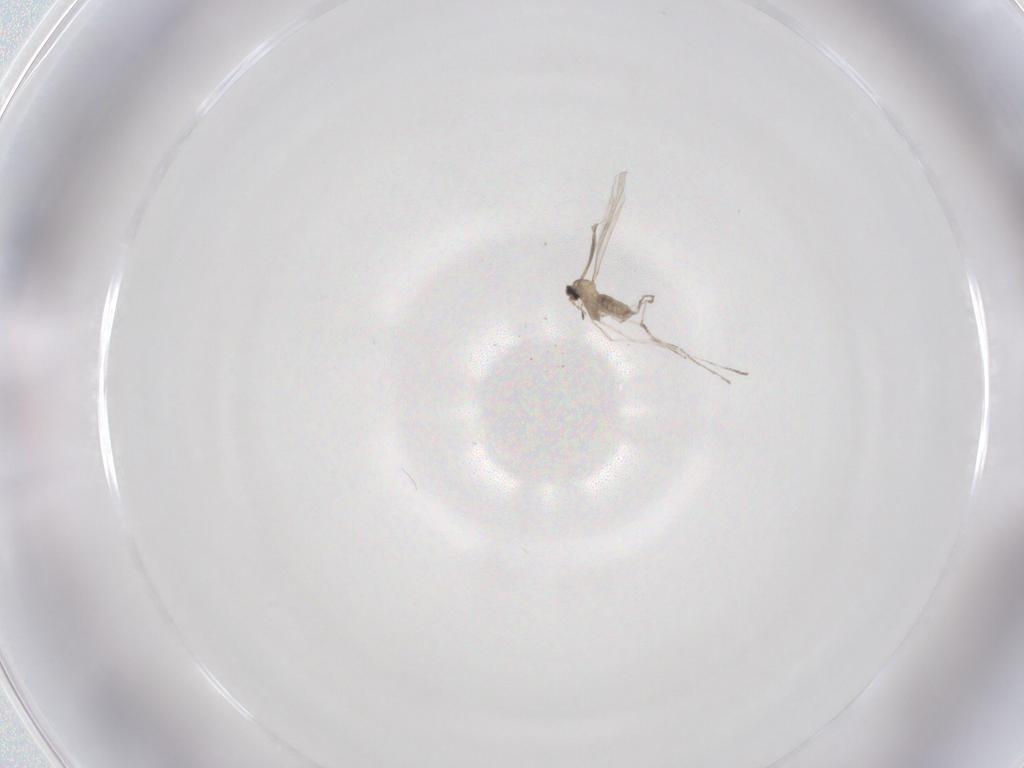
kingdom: Animalia
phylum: Arthropoda
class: Insecta
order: Diptera
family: Cecidomyiidae
